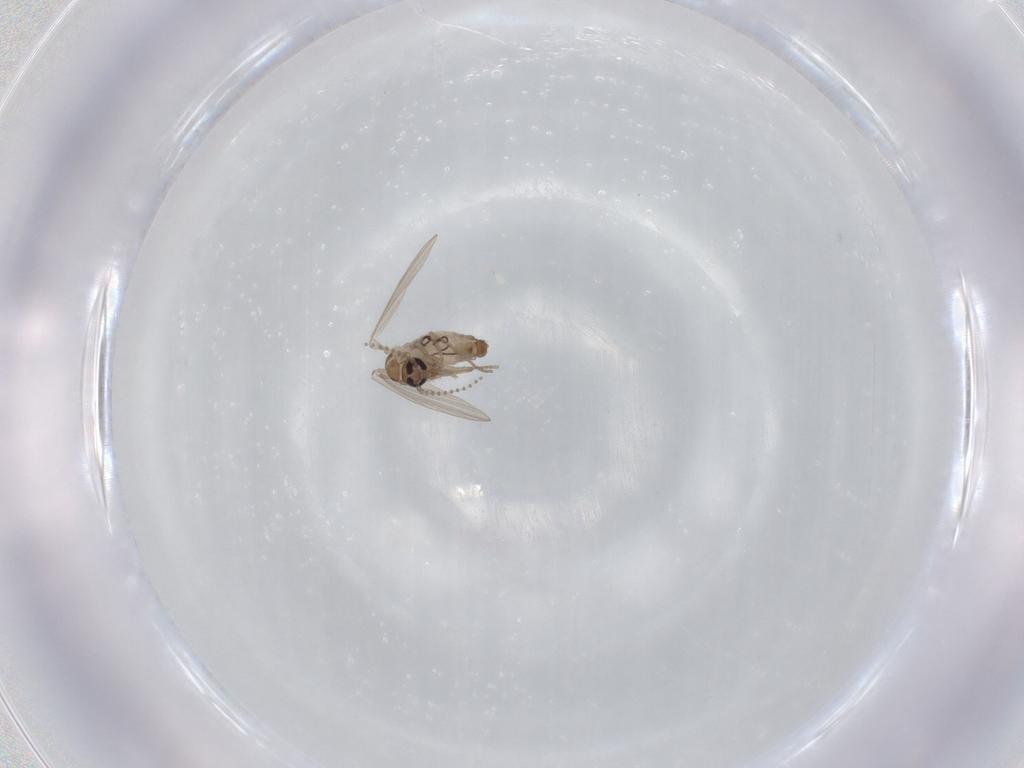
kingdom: Animalia
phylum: Arthropoda
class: Insecta
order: Diptera
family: Psychodidae
